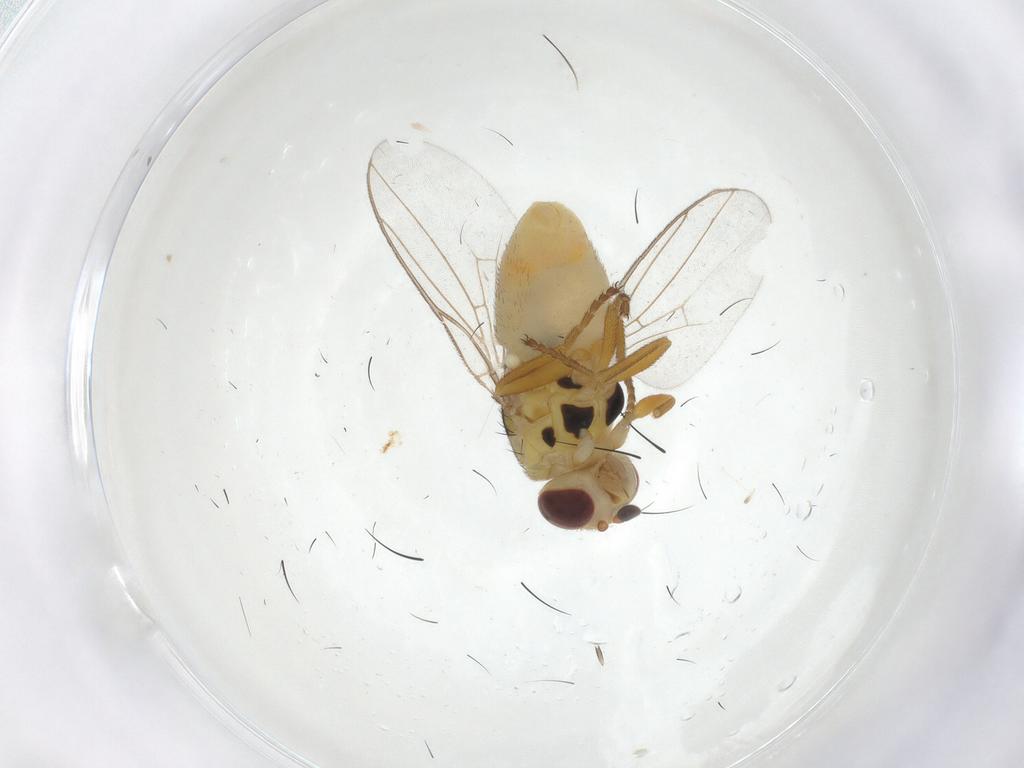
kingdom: Animalia
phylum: Arthropoda
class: Insecta
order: Diptera
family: Chloropidae
